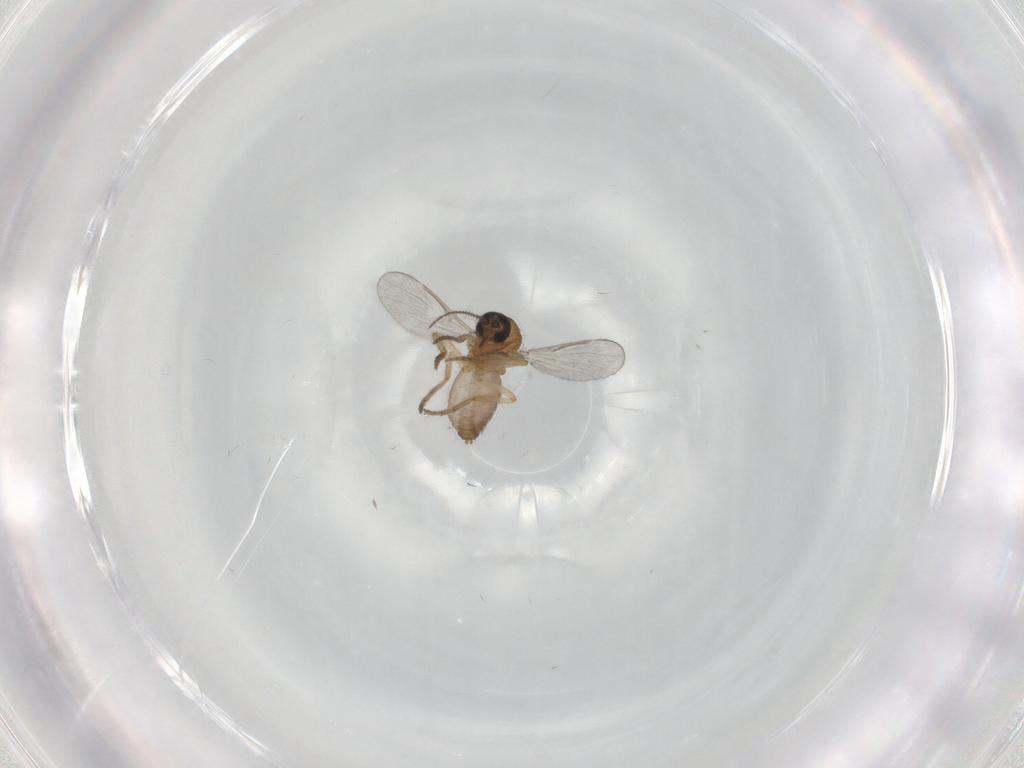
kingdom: Animalia
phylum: Arthropoda
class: Insecta
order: Diptera
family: Ceratopogonidae
